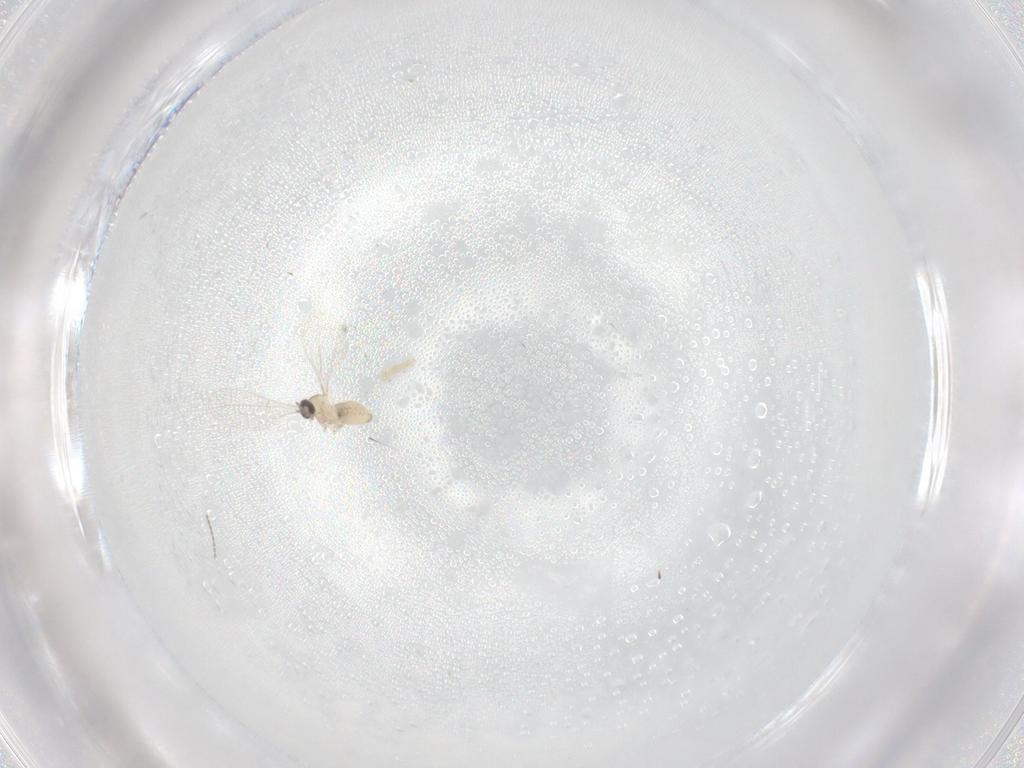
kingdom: Animalia
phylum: Arthropoda
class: Insecta
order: Diptera
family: Cecidomyiidae
